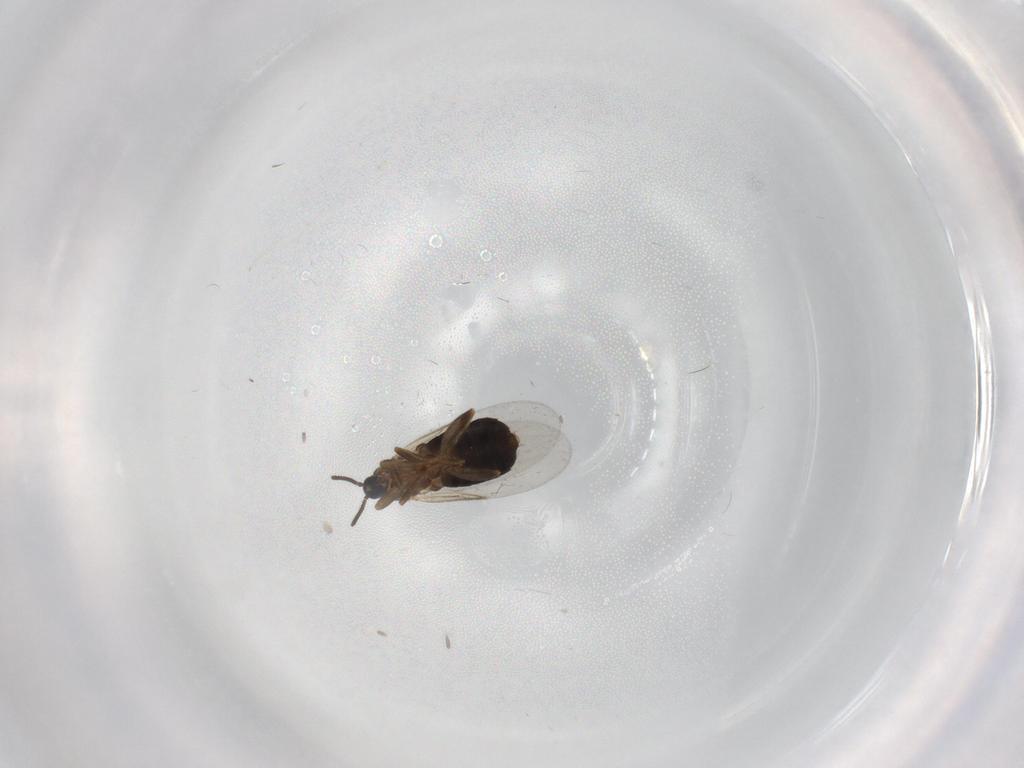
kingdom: Animalia
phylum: Arthropoda
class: Insecta
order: Diptera
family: Scatopsidae
